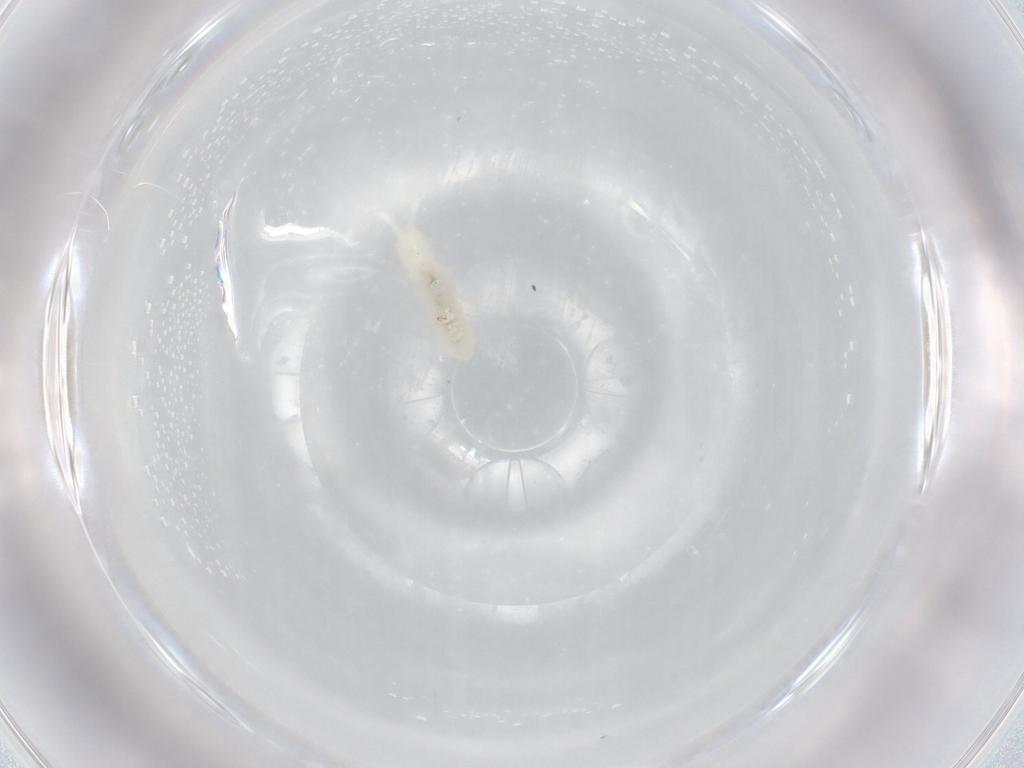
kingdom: Animalia
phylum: Arthropoda
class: Collembola
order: Poduromorpha
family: Onychiuridae
